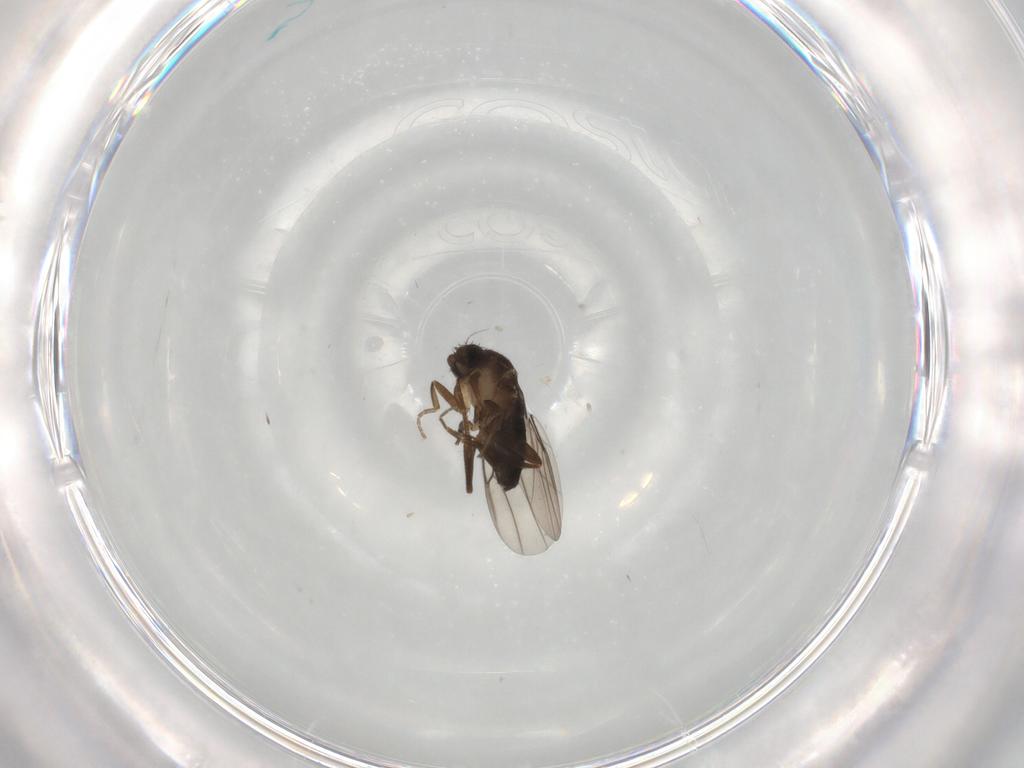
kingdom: Animalia
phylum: Arthropoda
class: Insecta
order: Diptera
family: Phoridae
